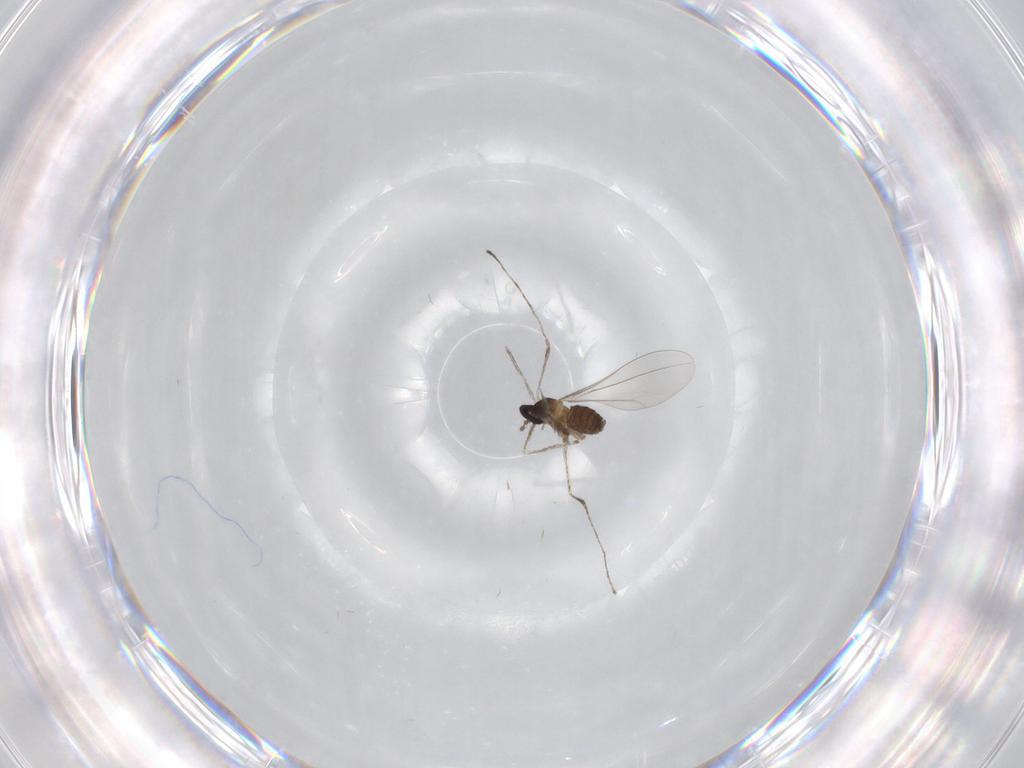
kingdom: Animalia
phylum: Arthropoda
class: Insecta
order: Diptera
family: Cecidomyiidae
